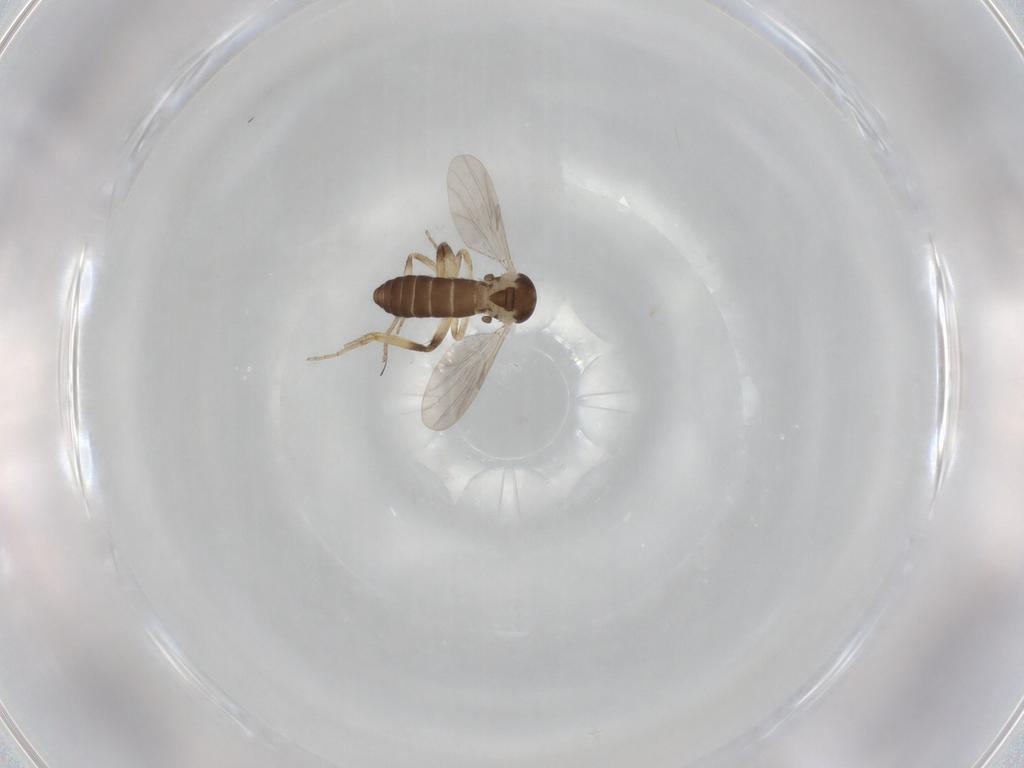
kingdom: Animalia
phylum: Arthropoda
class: Insecta
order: Diptera
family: Ceratopogonidae
